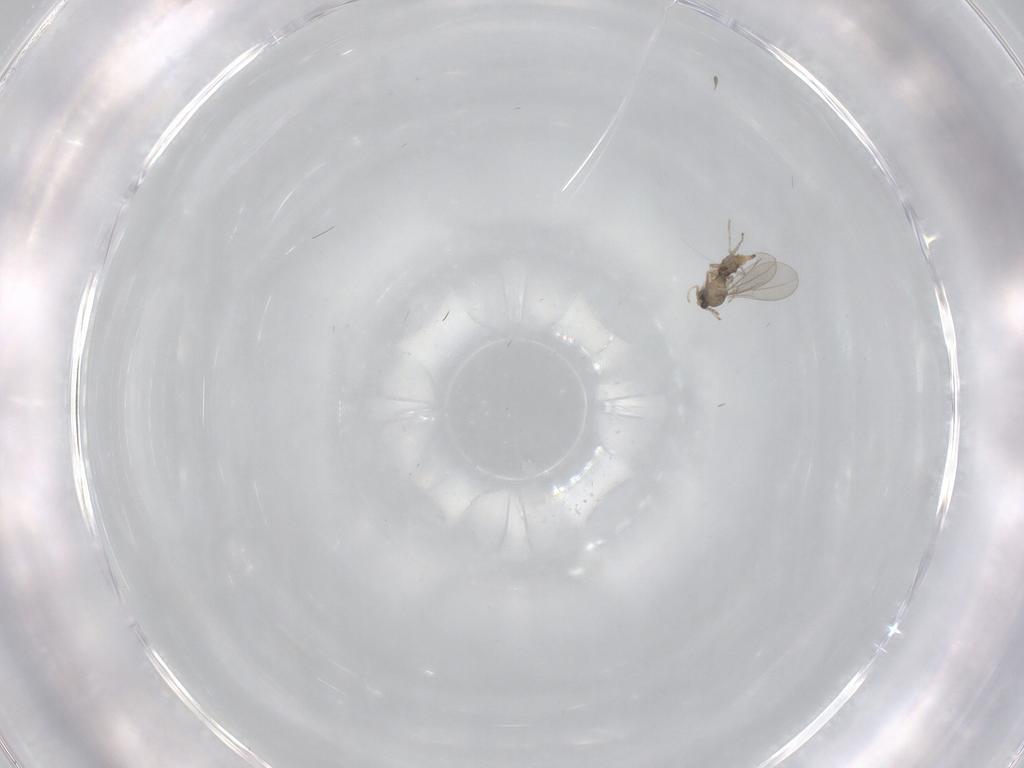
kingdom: Animalia
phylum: Arthropoda
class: Insecta
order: Diptera
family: Cecidomyiidae
